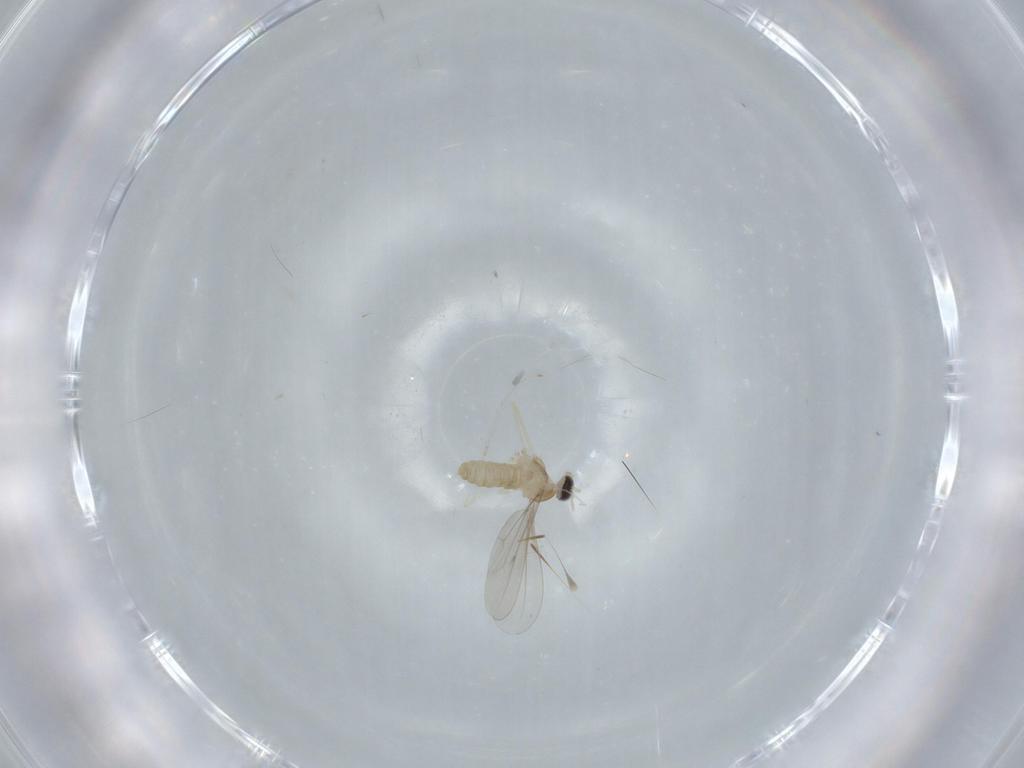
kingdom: Animalia
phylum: Arthropoda
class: Insecta
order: Diptera
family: Cecidomyiidae
